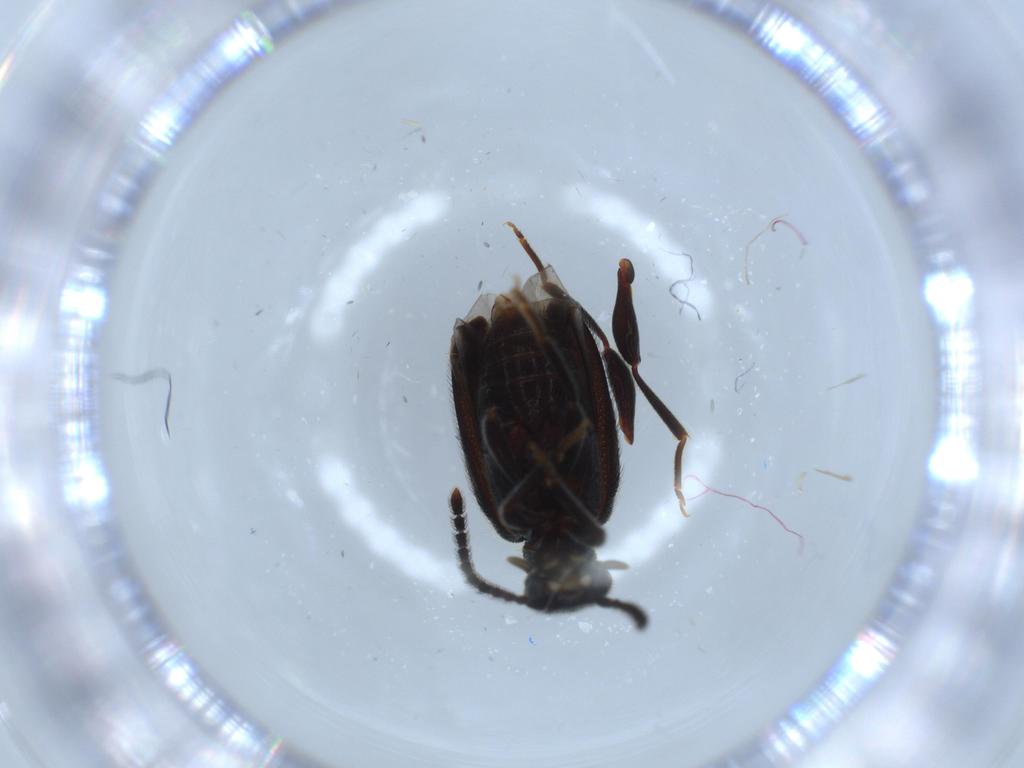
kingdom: Animalia
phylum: Arthropoda
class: Insecta
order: Coleoptera
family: Aderidae
